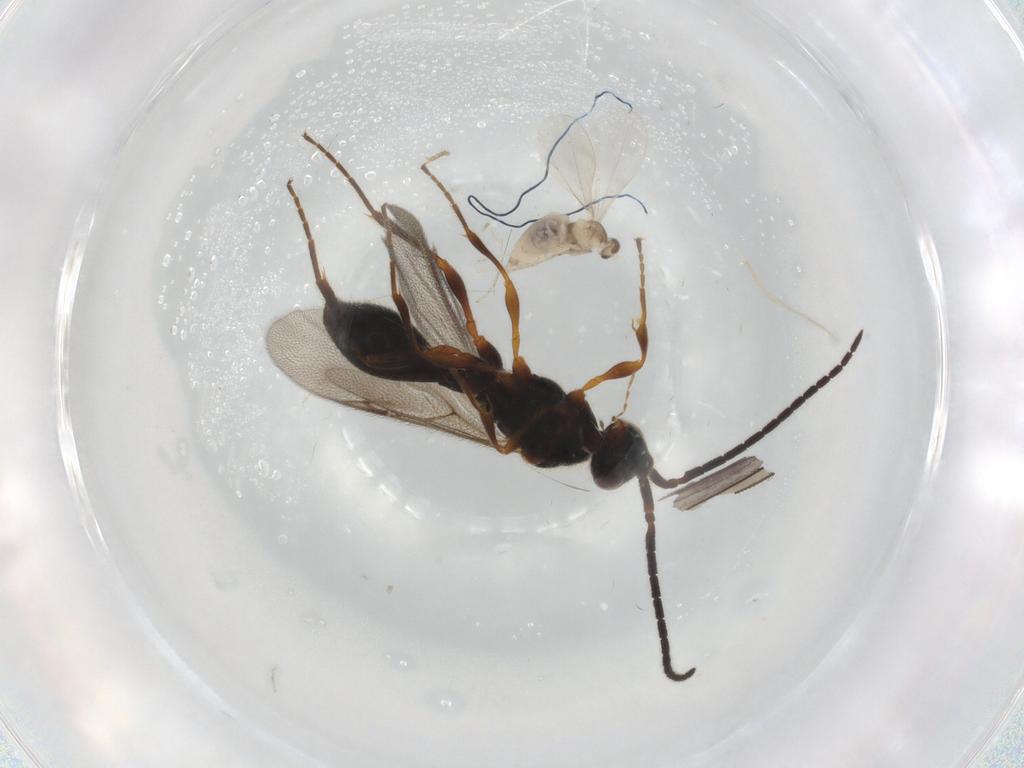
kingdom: Animalia
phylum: Arthropoda
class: Insecta
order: Diptera
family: Cecidomyiidae
